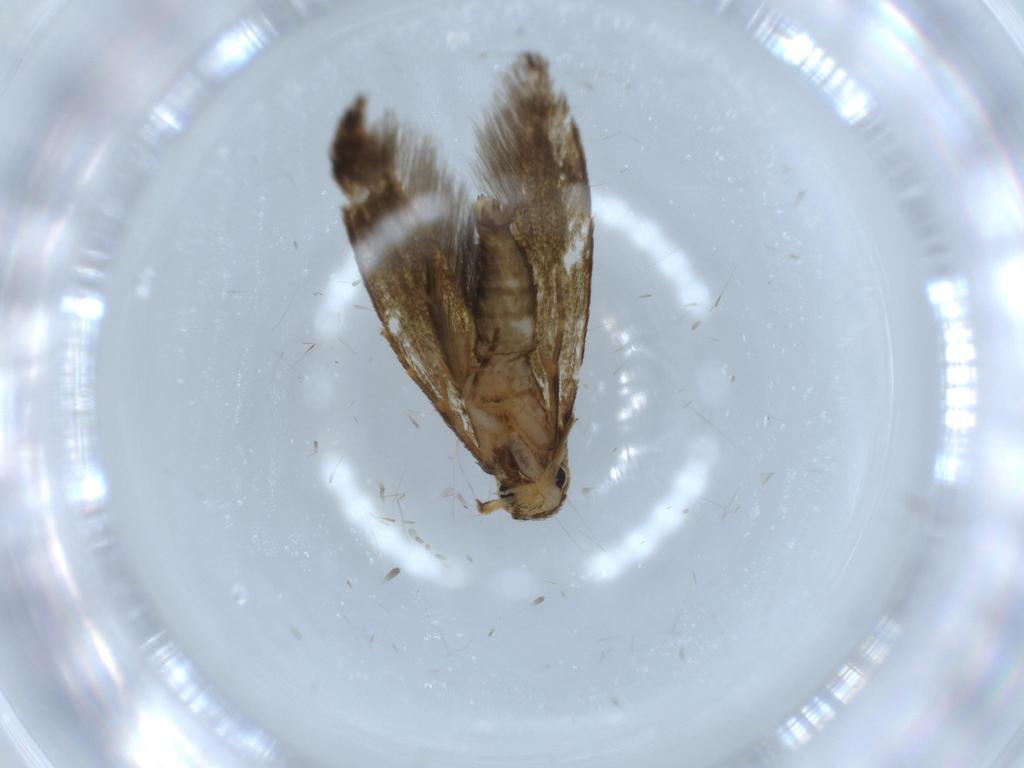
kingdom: Animalia
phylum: Arthropoda
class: Insecta
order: Lepidoptera
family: Tineidae
